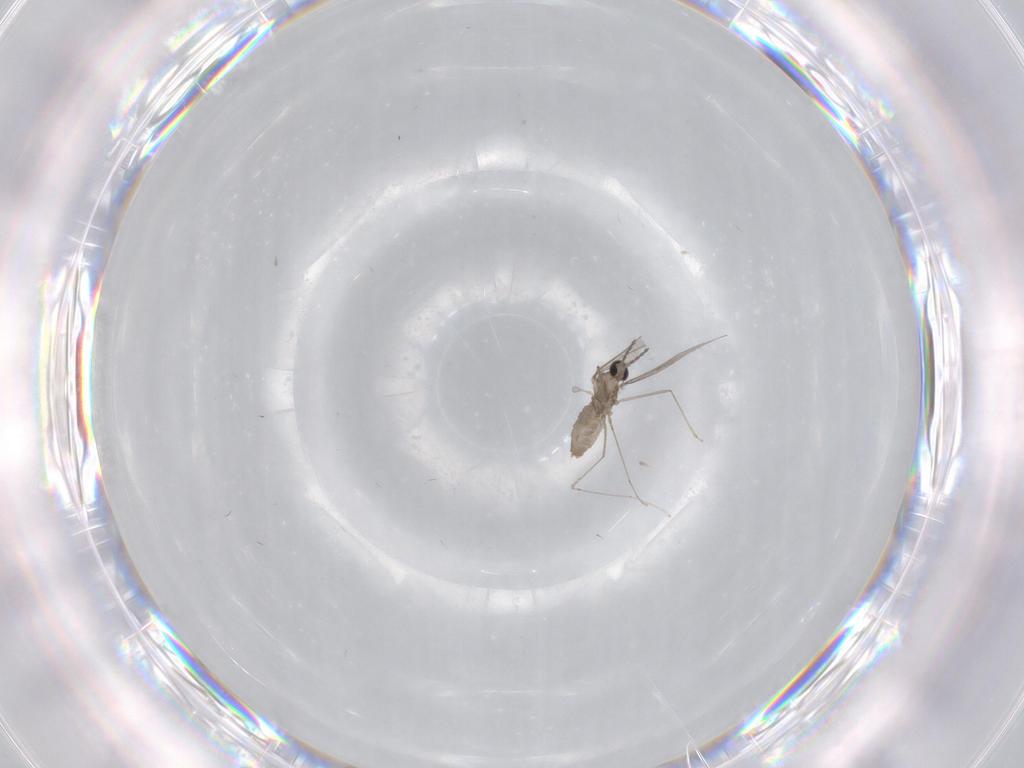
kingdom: Animalia
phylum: Arthropoda
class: Insecta
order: Diptera
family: Cecidomyiidae
